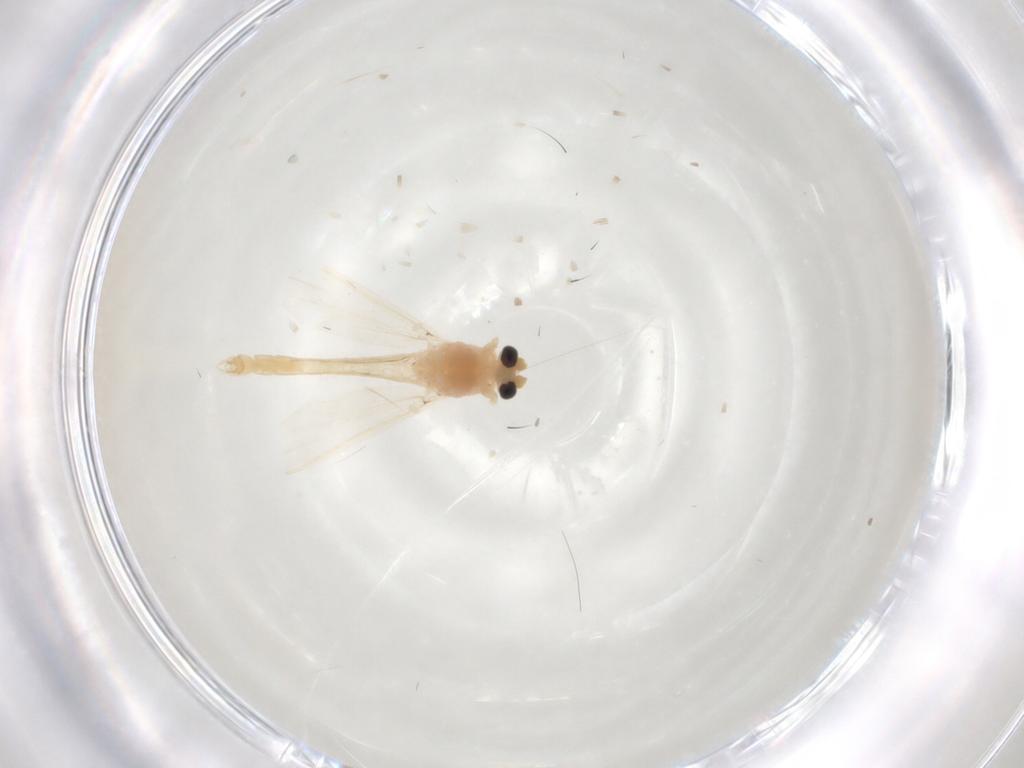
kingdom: Animalia
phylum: Arthropoda
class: Insecta
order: Diptera
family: Chironomidae
